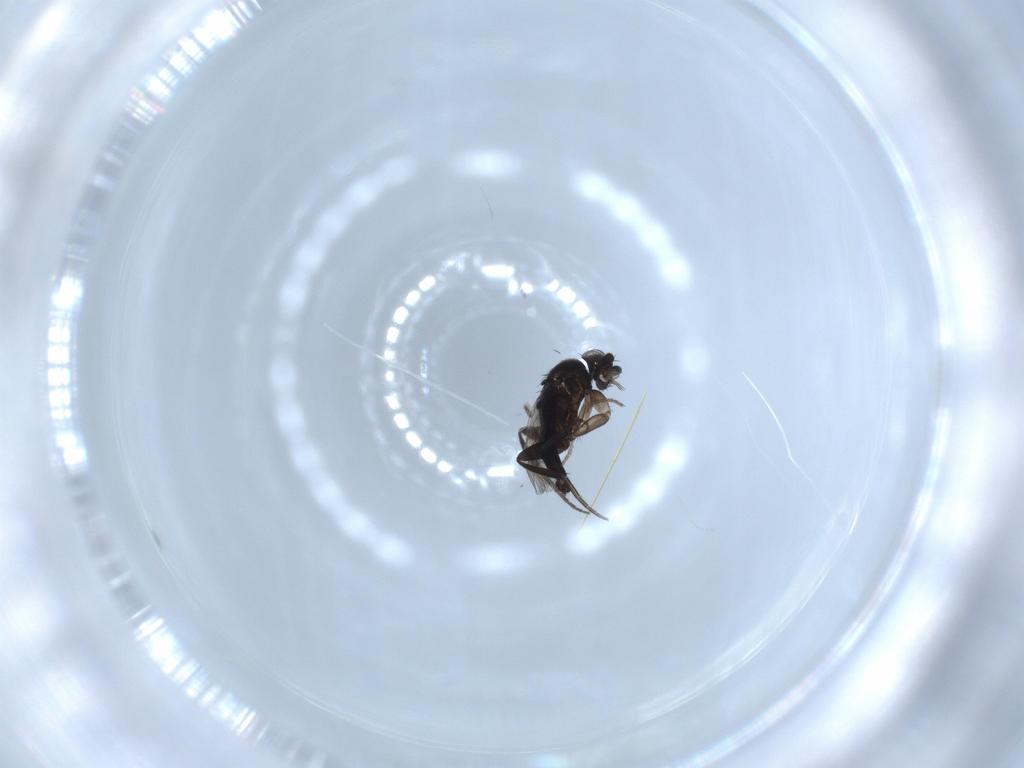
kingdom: Animalia
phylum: Arthropoda
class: Insecta
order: Diptera
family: Phoridae
